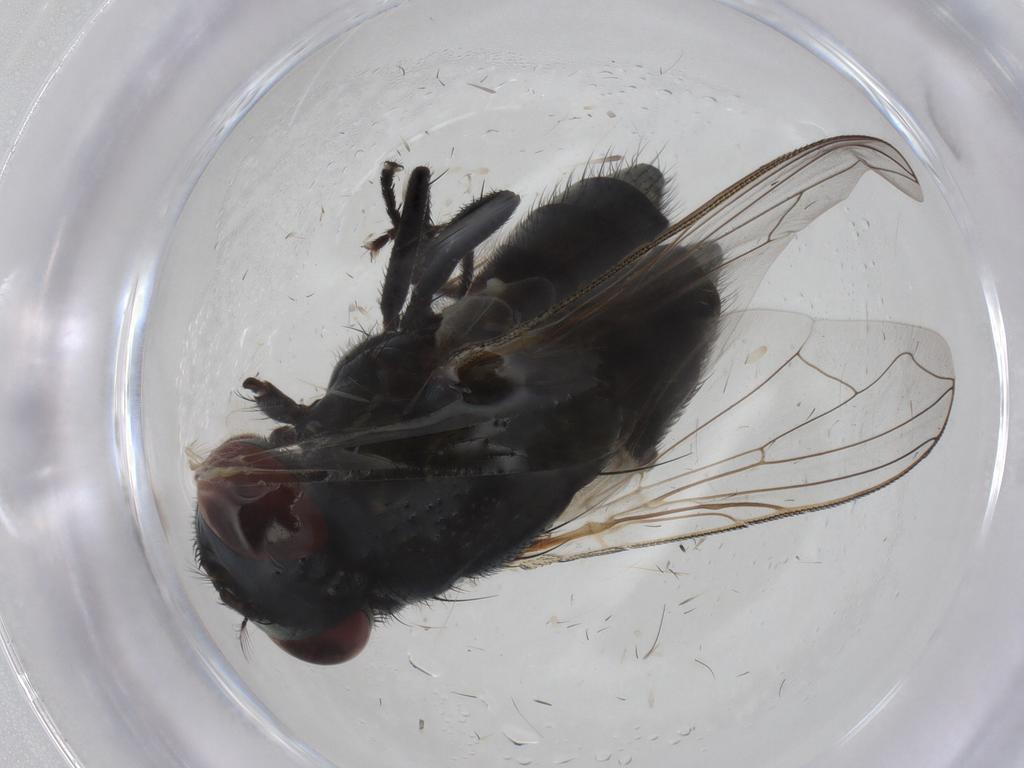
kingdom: Animalia
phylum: Arthropoda
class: Insecta
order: Diptera
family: Muscidae
